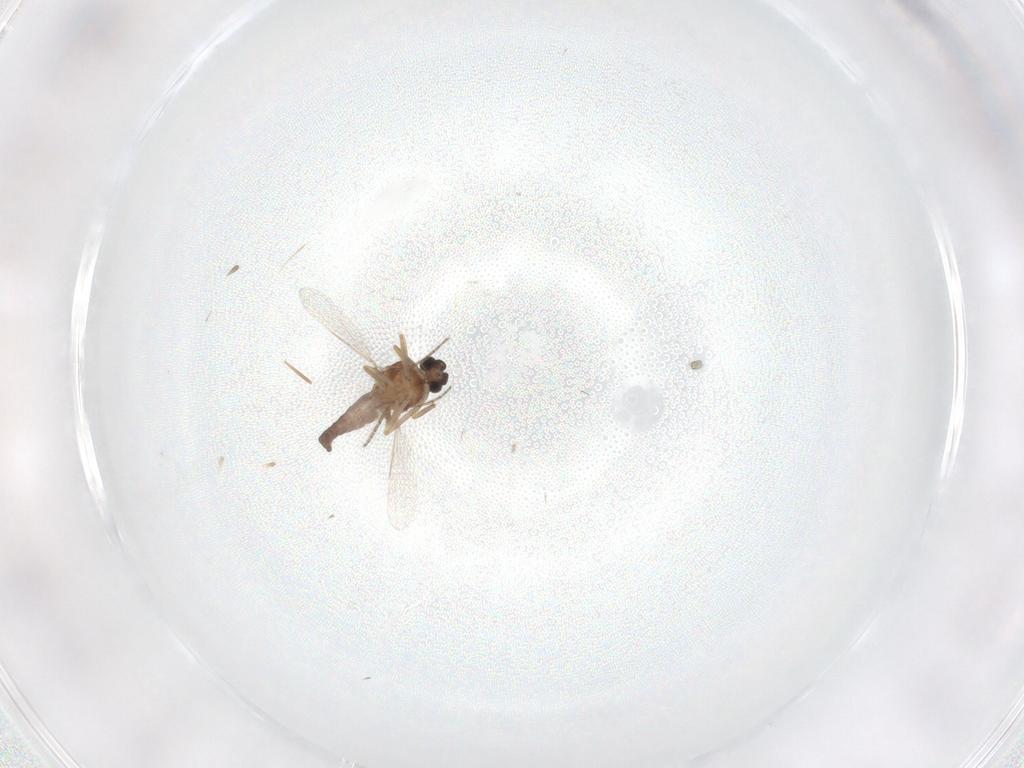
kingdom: Animalia
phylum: Arthropoda
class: Insecta
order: Diptera
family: Ceratopogonidae
